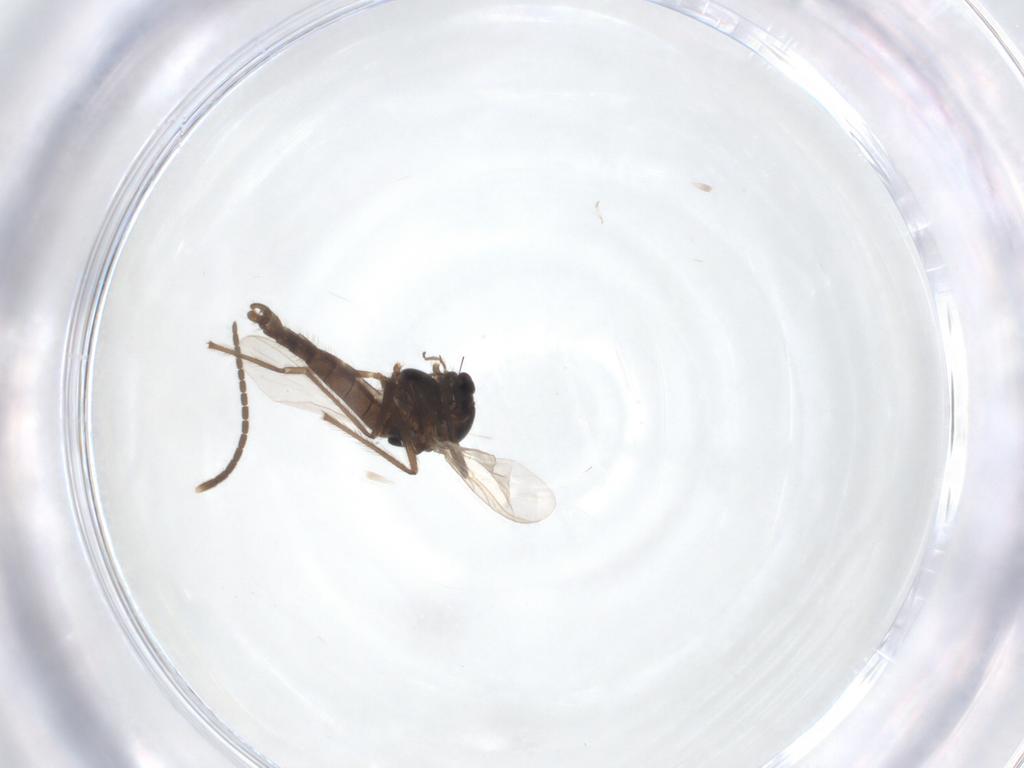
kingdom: Animalia
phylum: Arthropoda
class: Insecta
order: Diptera
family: Chironomidae
